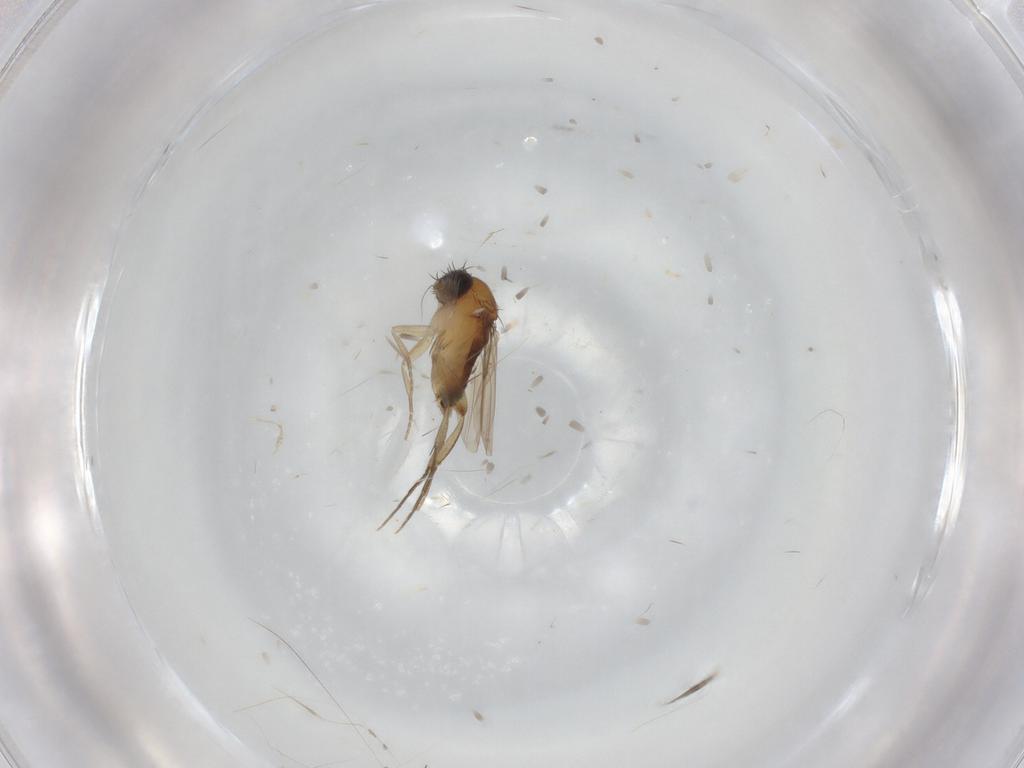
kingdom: Animalia
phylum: Arthropoda
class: Insecta
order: Diptera
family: Phoridae
